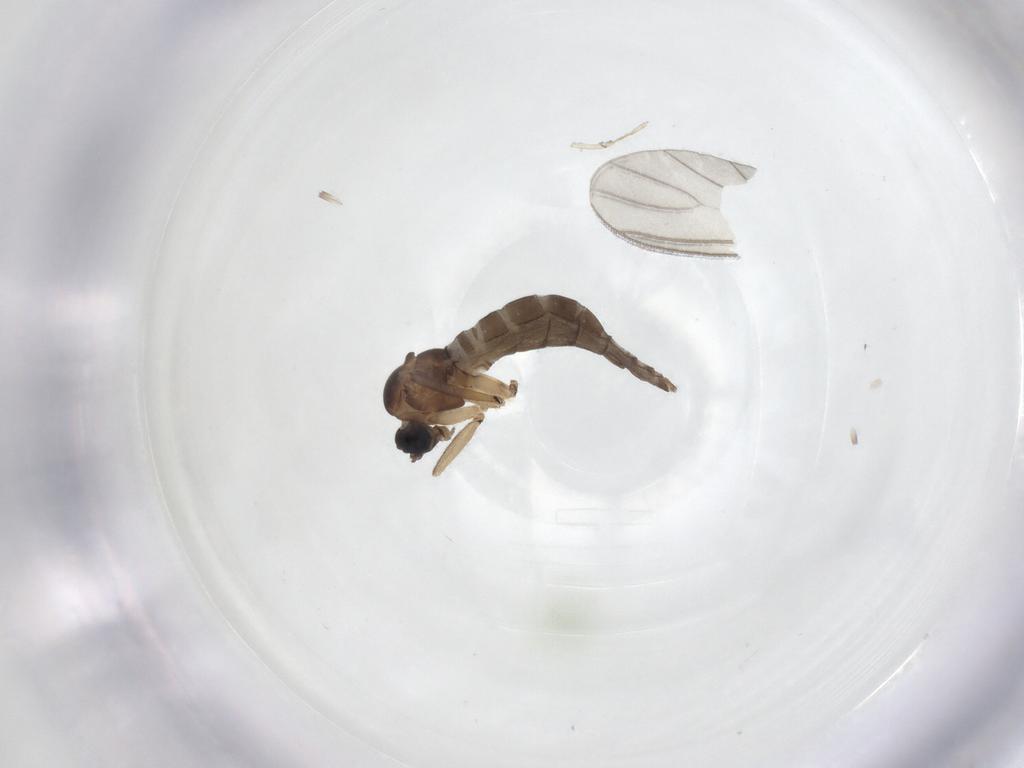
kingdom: Animalia
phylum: Arthropoda
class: Insecta
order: Diptera
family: Sciaridae
